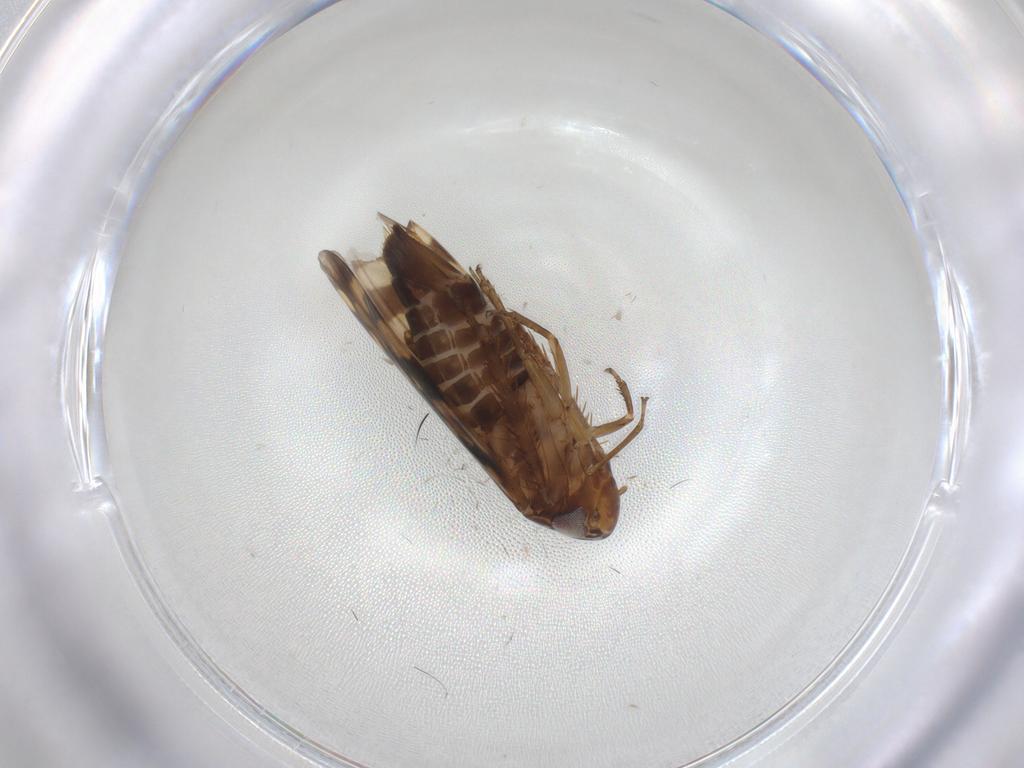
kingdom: Animalia
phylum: Arthropoda
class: Insecta
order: Hemiptera
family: Cicadellidae
